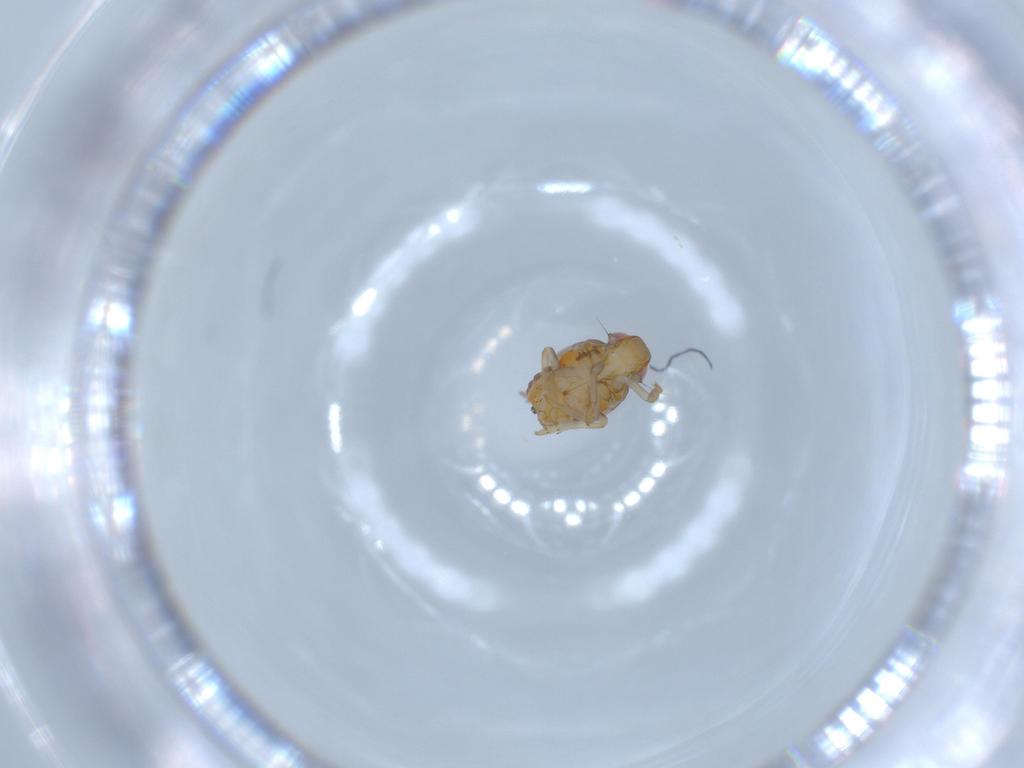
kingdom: Animalia
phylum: Arthropoda
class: Insecta
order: Hemiptera
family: Issidae
